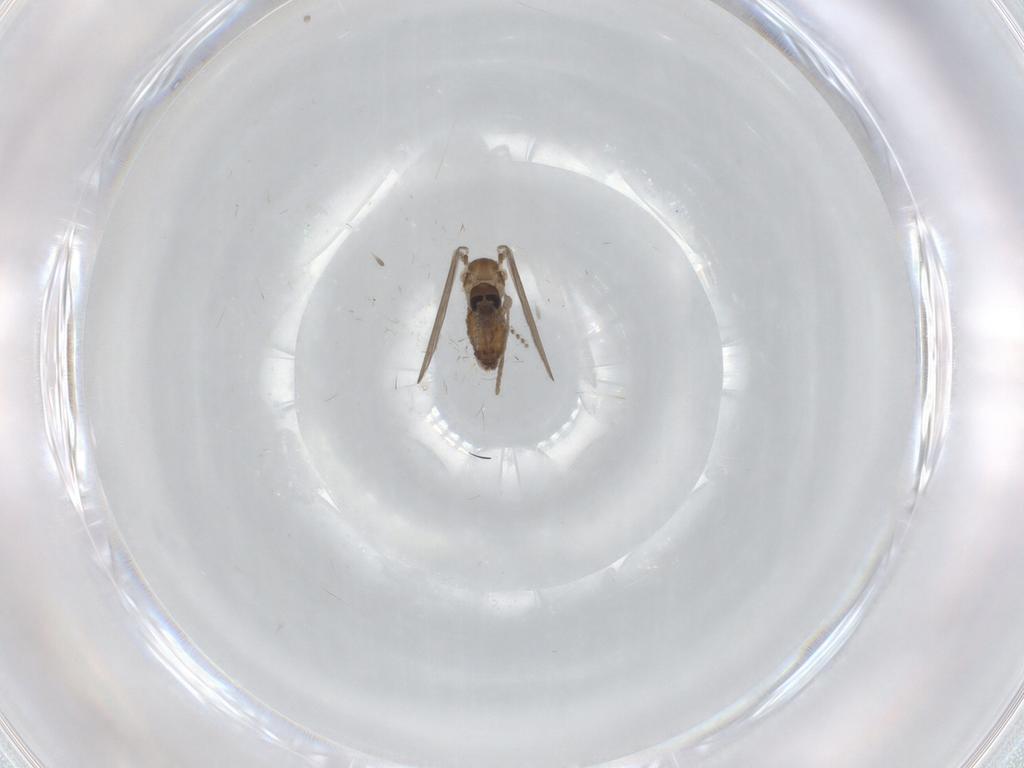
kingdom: Animalia
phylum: Arthropoda
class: Insecta
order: Diptera
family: Psychodidae
